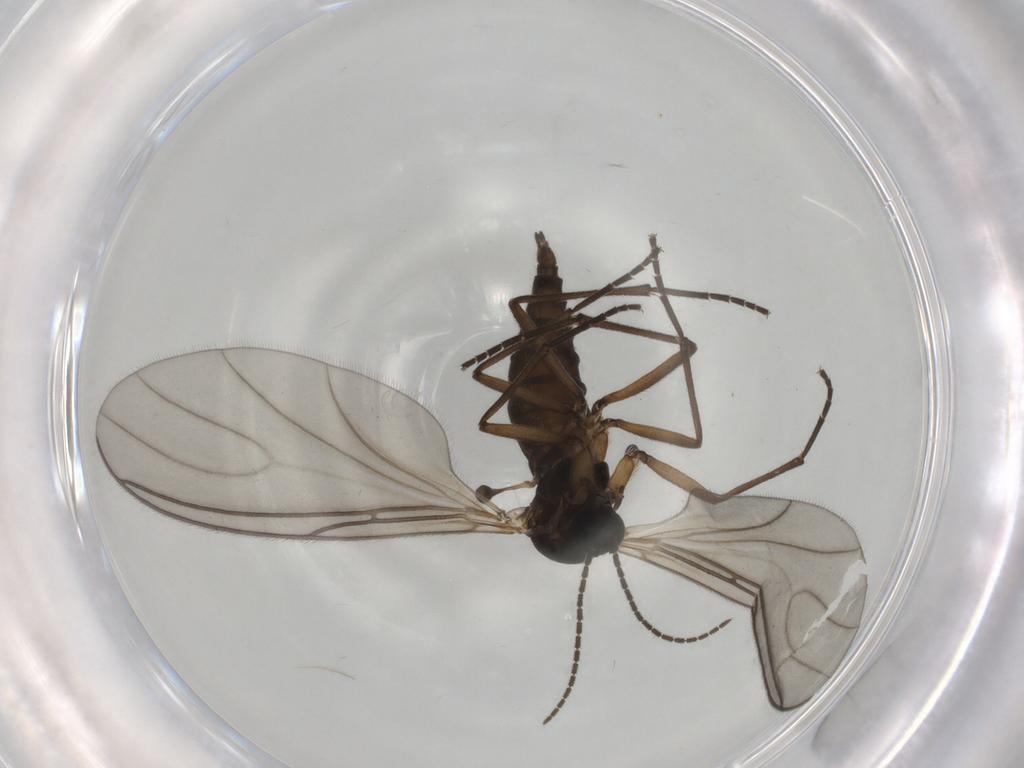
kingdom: Animalia
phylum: Arthropoda
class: Insecta
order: Diptera
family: Sciaridae
